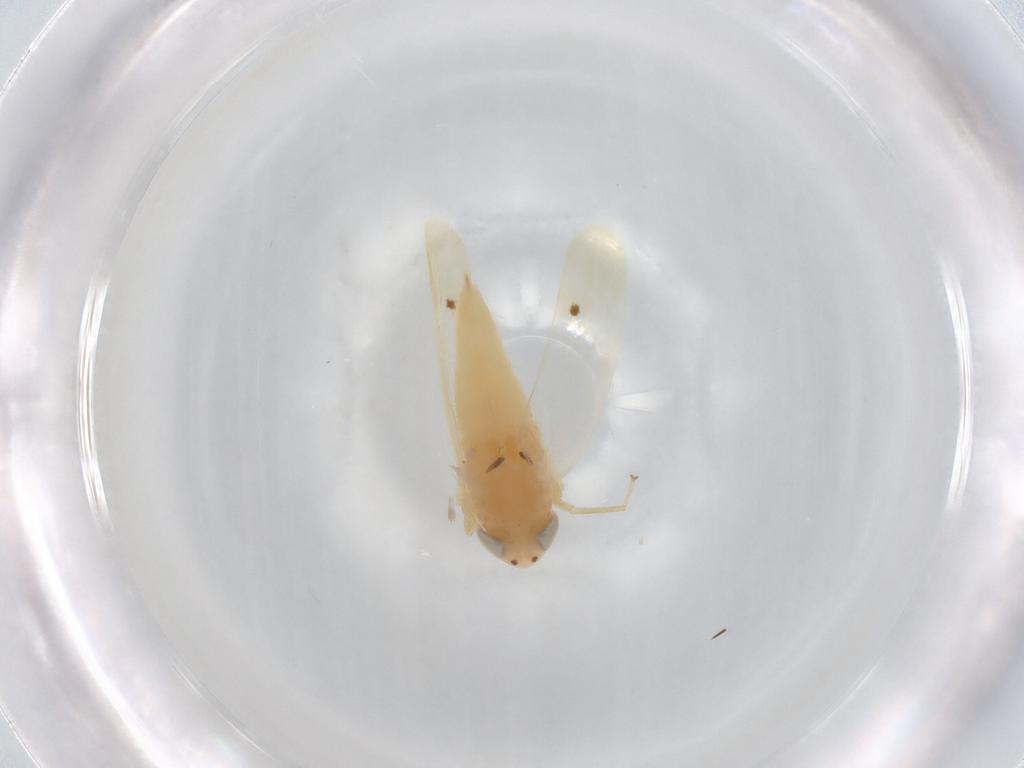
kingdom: Animalia
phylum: Arthropoda
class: Insecta
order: Hemiptera
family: Cicadellidae
